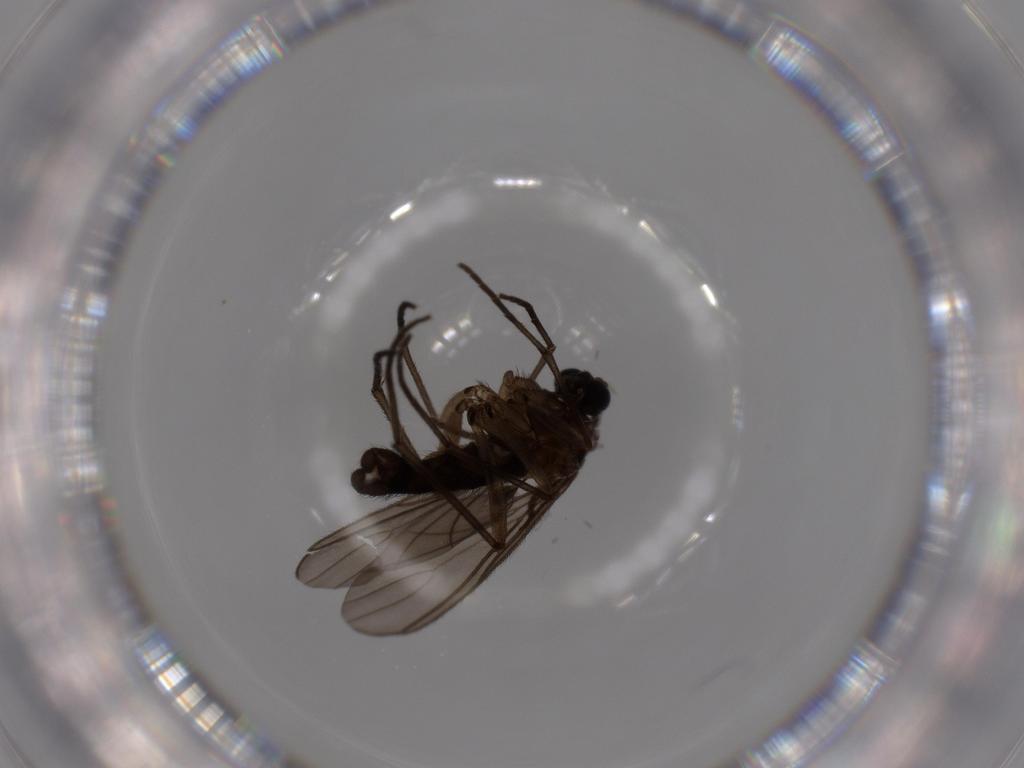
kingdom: Animalia
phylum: Arthropoda
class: Insecta
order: Diptera
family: Sciaridae
